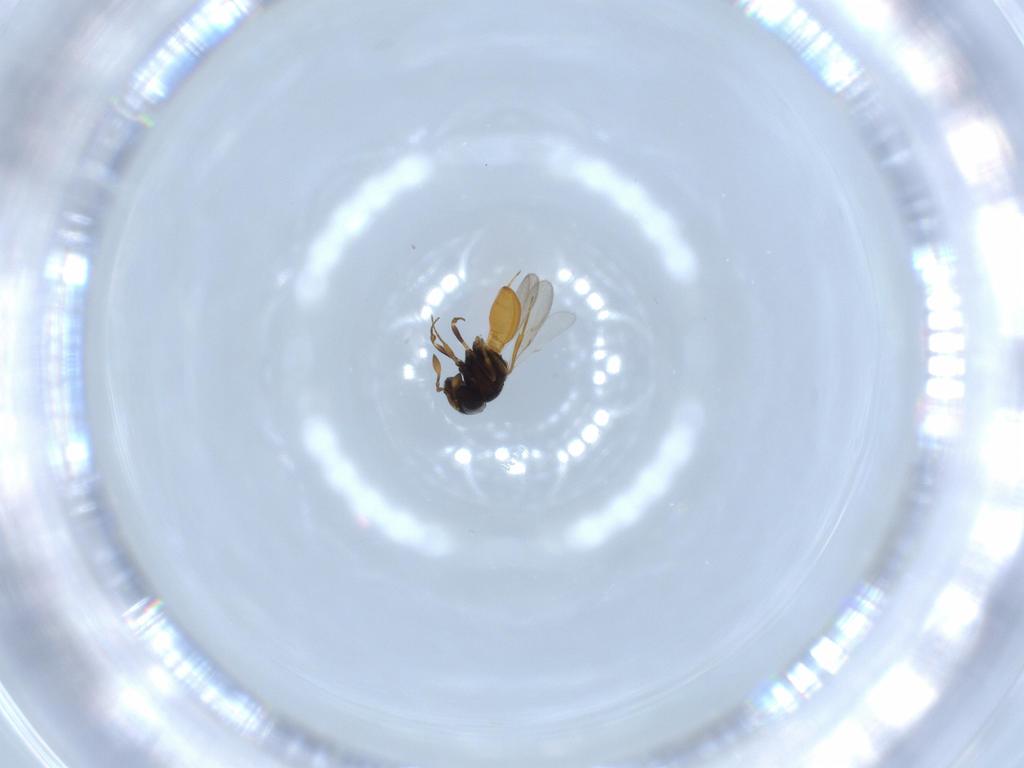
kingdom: Animalia
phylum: Arthropoda
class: Insecta
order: Hymenoptera
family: Scelionidae
